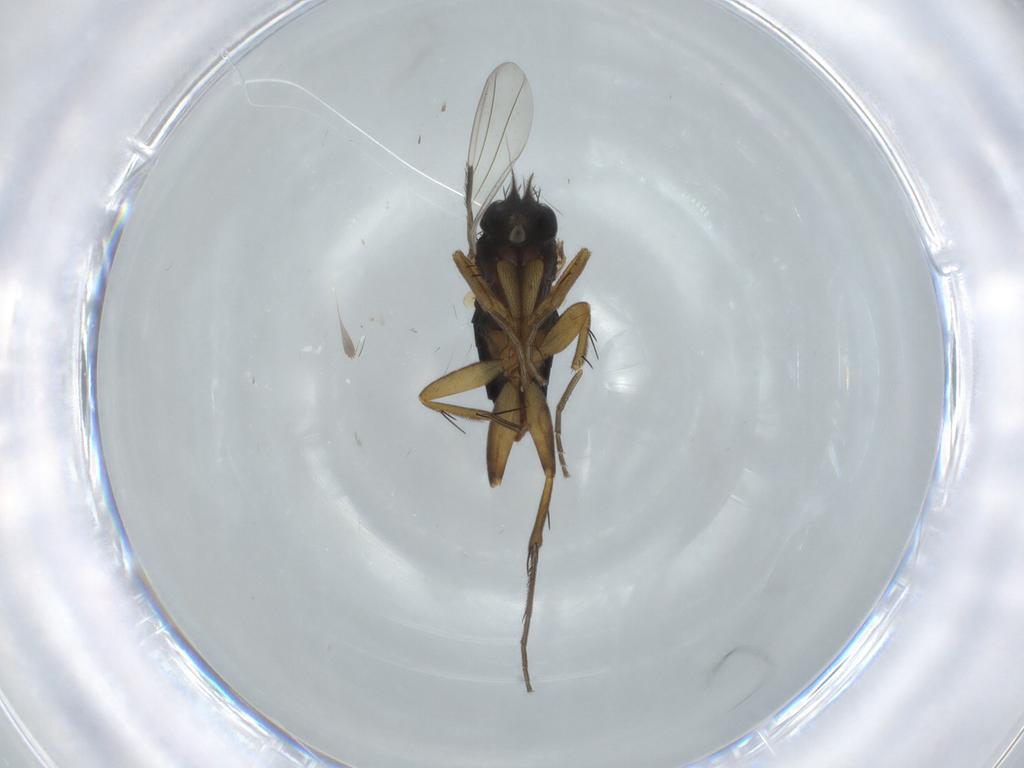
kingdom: Animalia
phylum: Arthropoda
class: Insecta
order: Diptera
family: Phoridae
